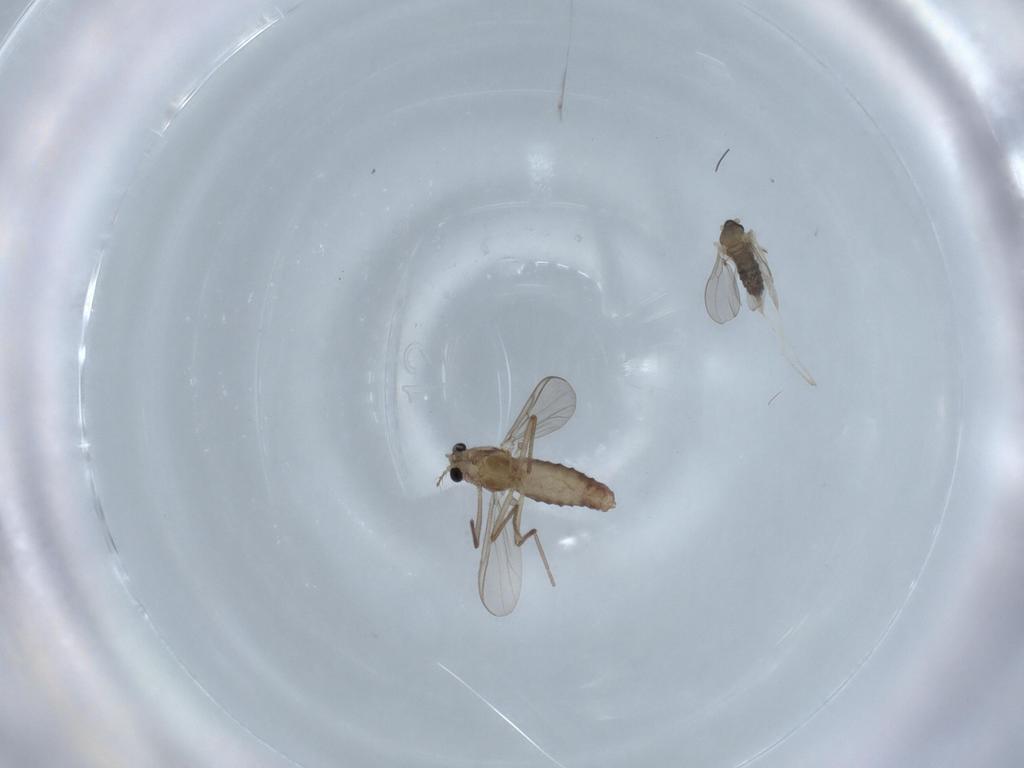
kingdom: Animalia
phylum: Arthropoda
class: Insecta
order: Diptera
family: Chironomidae
